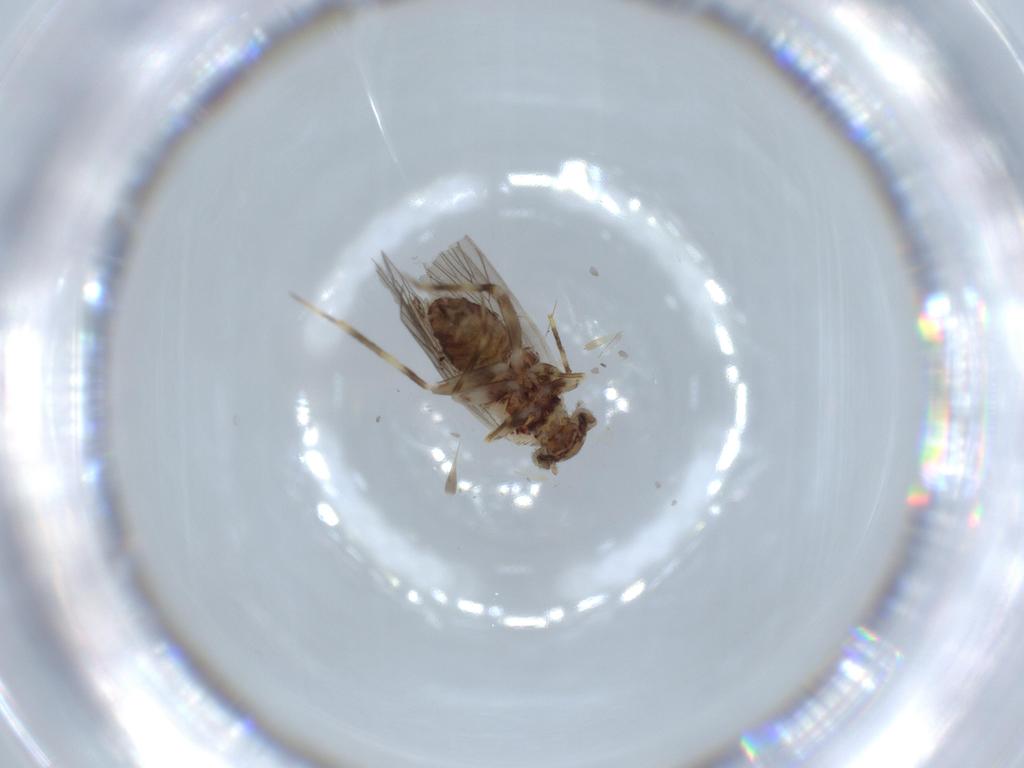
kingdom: Animalia
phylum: Arthropoda
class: Insecta
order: Psocodea
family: Lepidopsocidae
